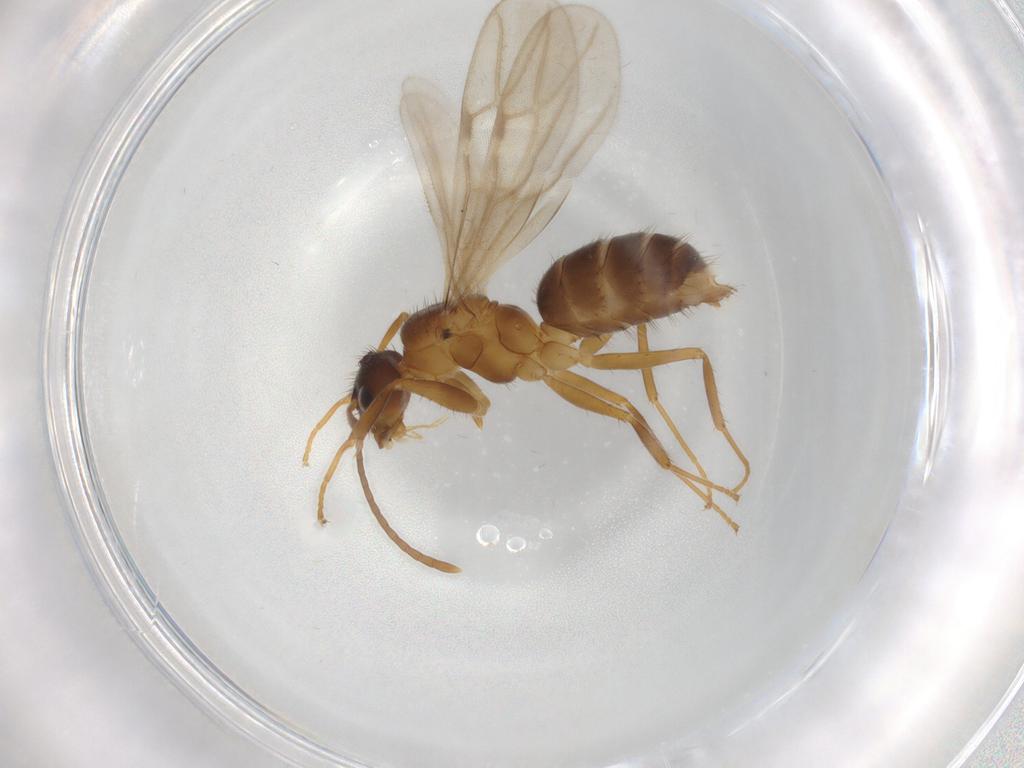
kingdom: Animalia
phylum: Arthropoda
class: Insecta
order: Hymenoptera
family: Formicidae
